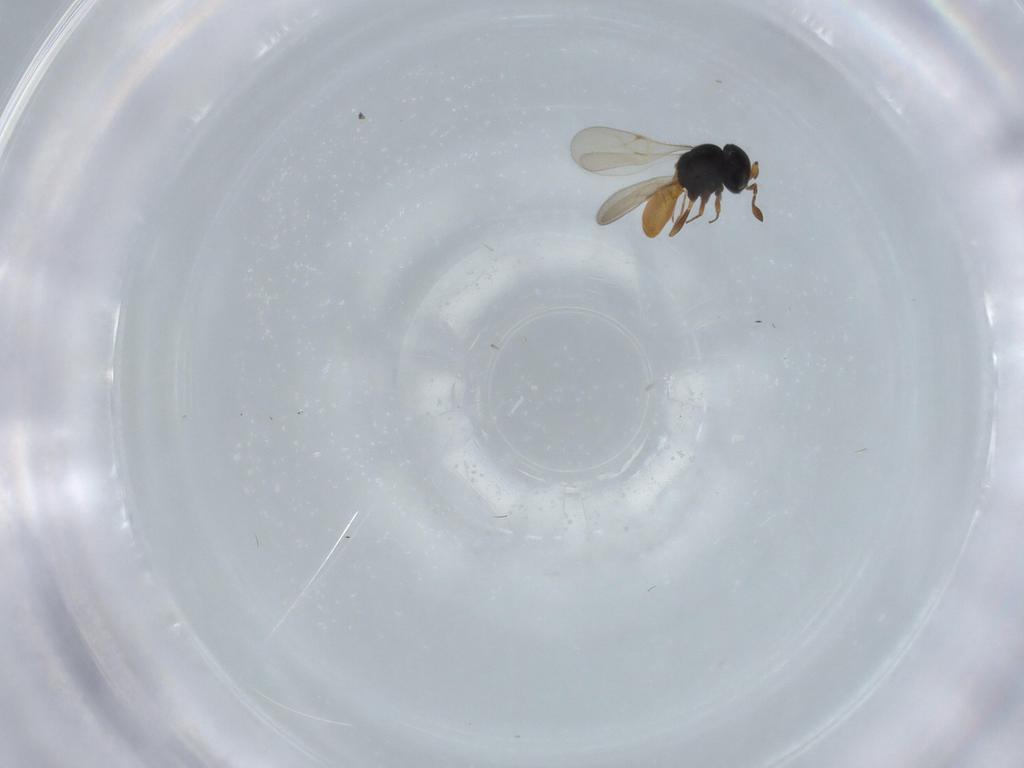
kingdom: Animalia
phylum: Arthropoda
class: Insecta
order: Hymenoptera
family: Scelionidae
